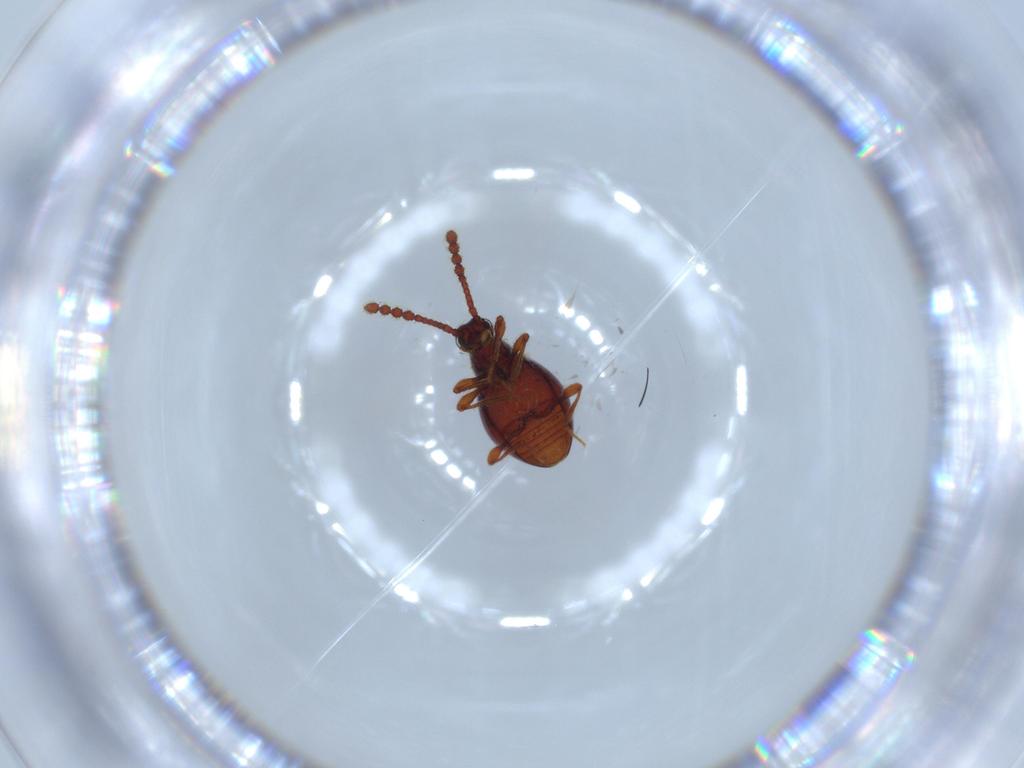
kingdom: Animalia
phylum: Arthropoda
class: Insecta
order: Coleoptera
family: Staphylinidae
